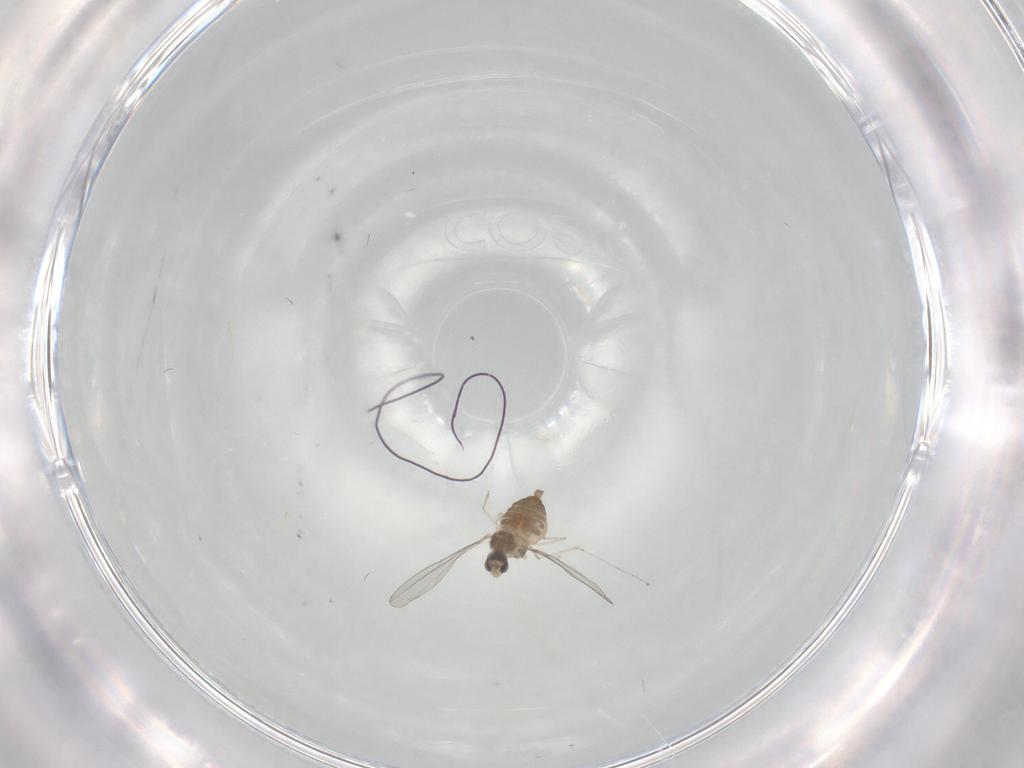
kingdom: Animalia
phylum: Arthropoda
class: Insecta
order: Diptera
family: Cecidomyiidae
